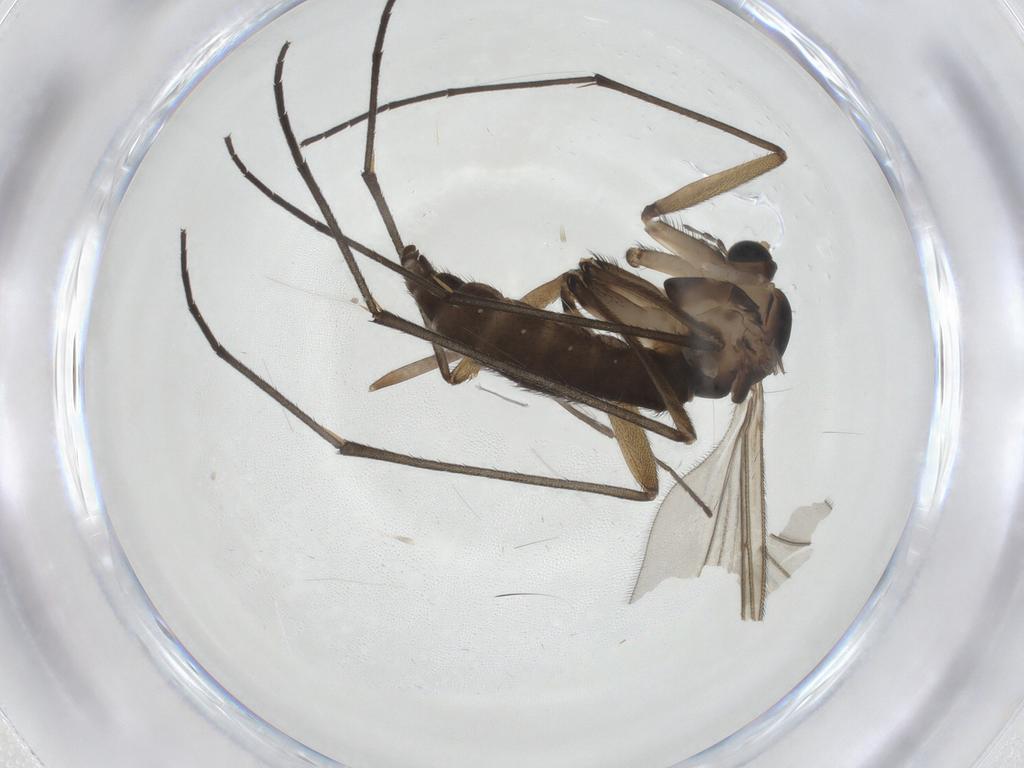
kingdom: Animalia
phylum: Arthropoda
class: Insecta
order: Diptera
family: Sciaridae
